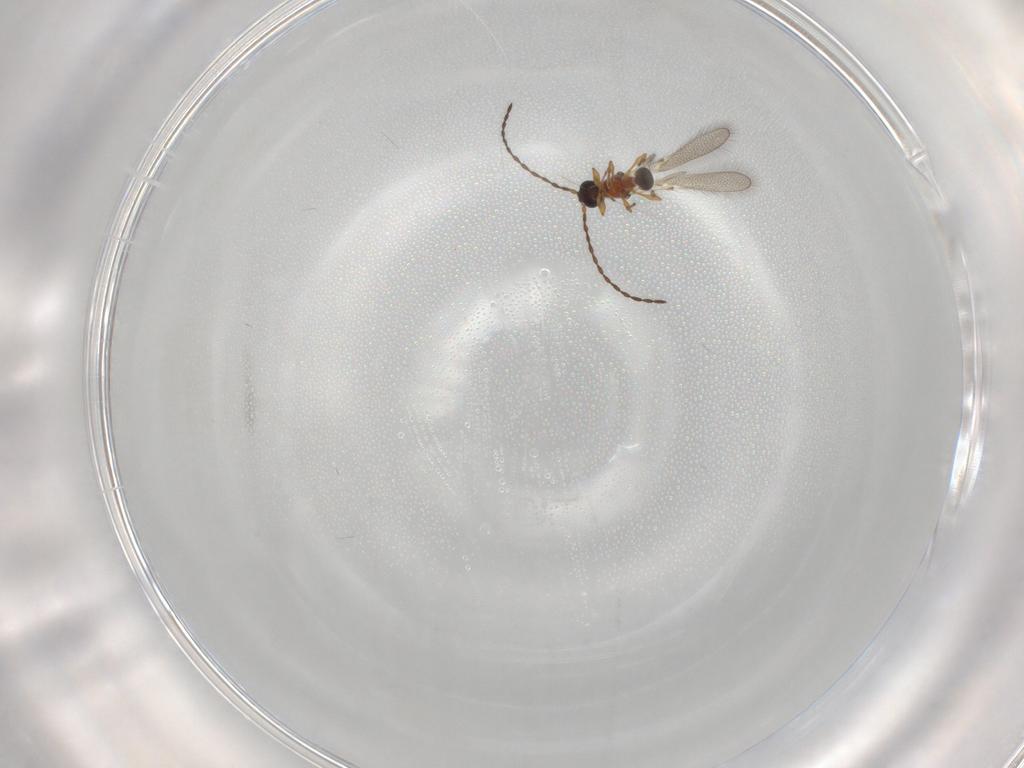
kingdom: Animalia
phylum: Arthropoda
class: Insecta
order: Hymenoptera
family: Diapriidae
